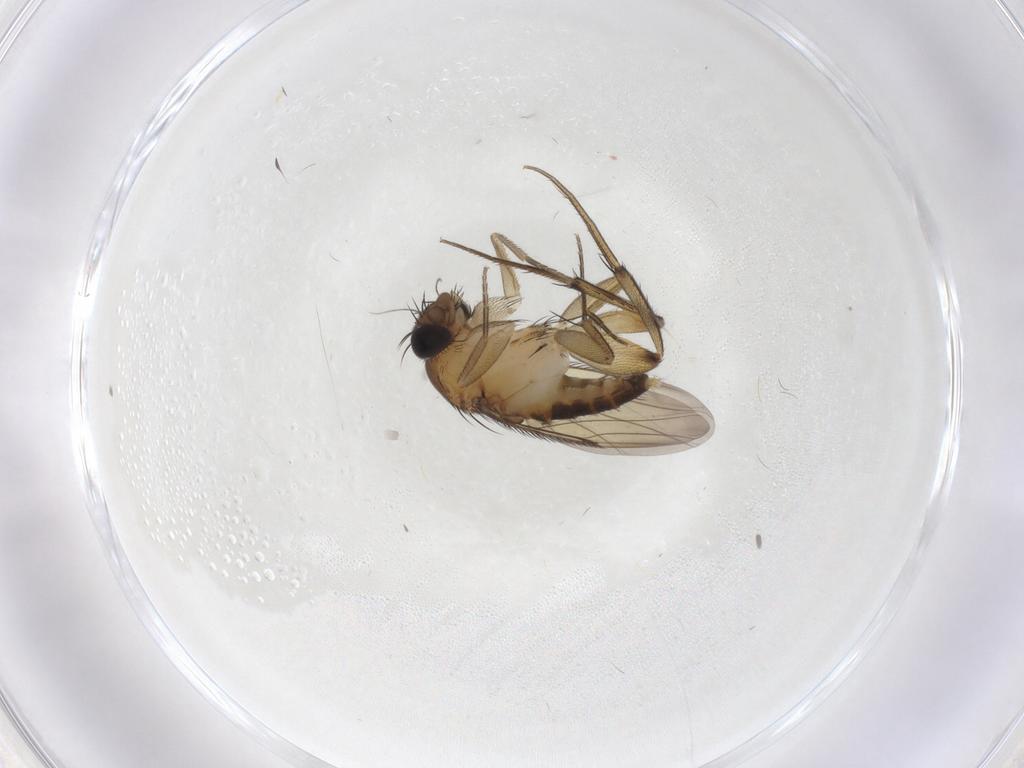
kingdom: Animalia
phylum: Arthropoda
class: Insecta
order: Diptera
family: Phoridae
